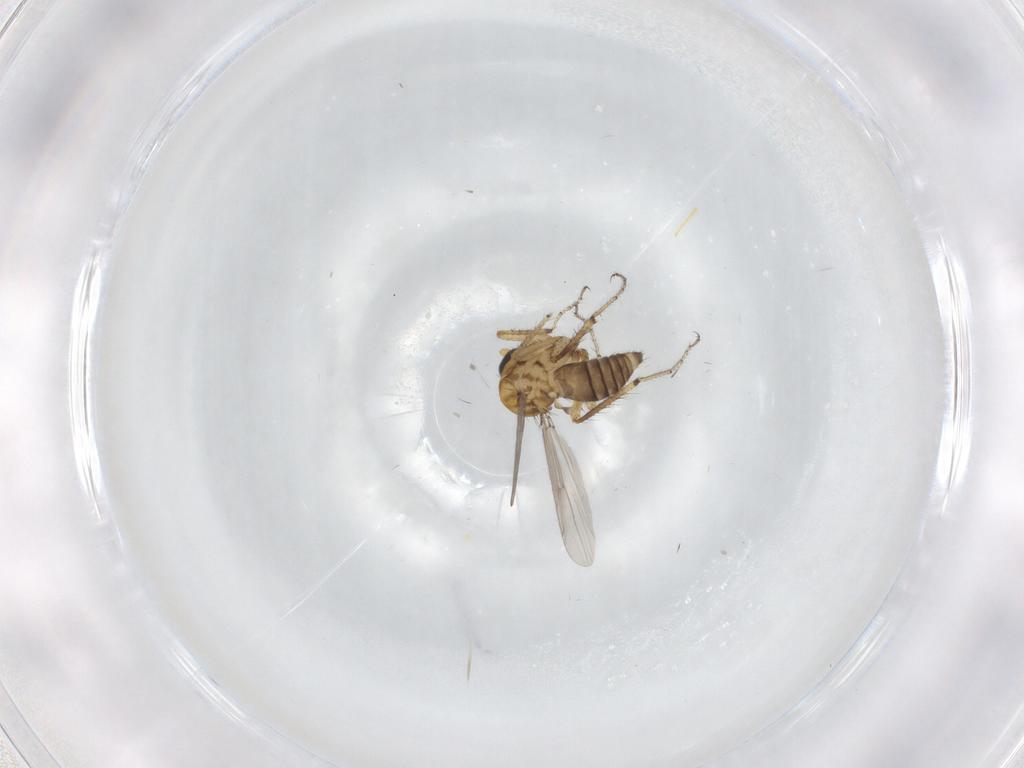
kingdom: Animalia
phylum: Arthropoda
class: Insecta
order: Diptera
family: Ceratopogonidae
